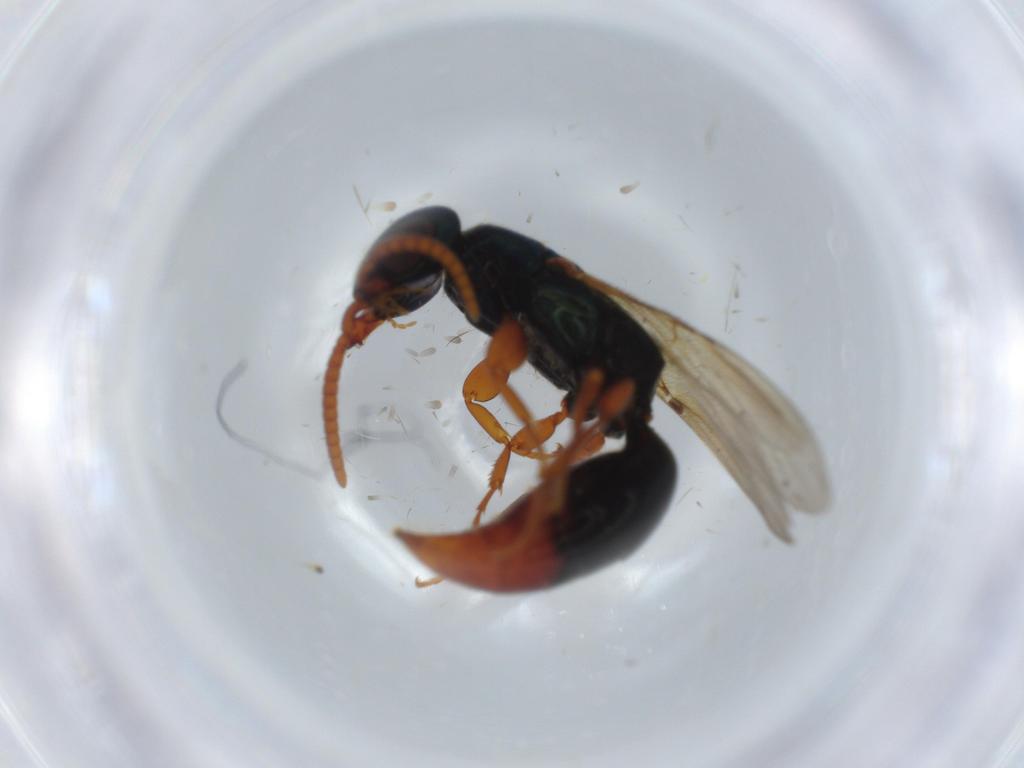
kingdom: Animalia
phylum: Arthropoda
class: Insecta
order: Hymenoptera
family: Bethylidae
